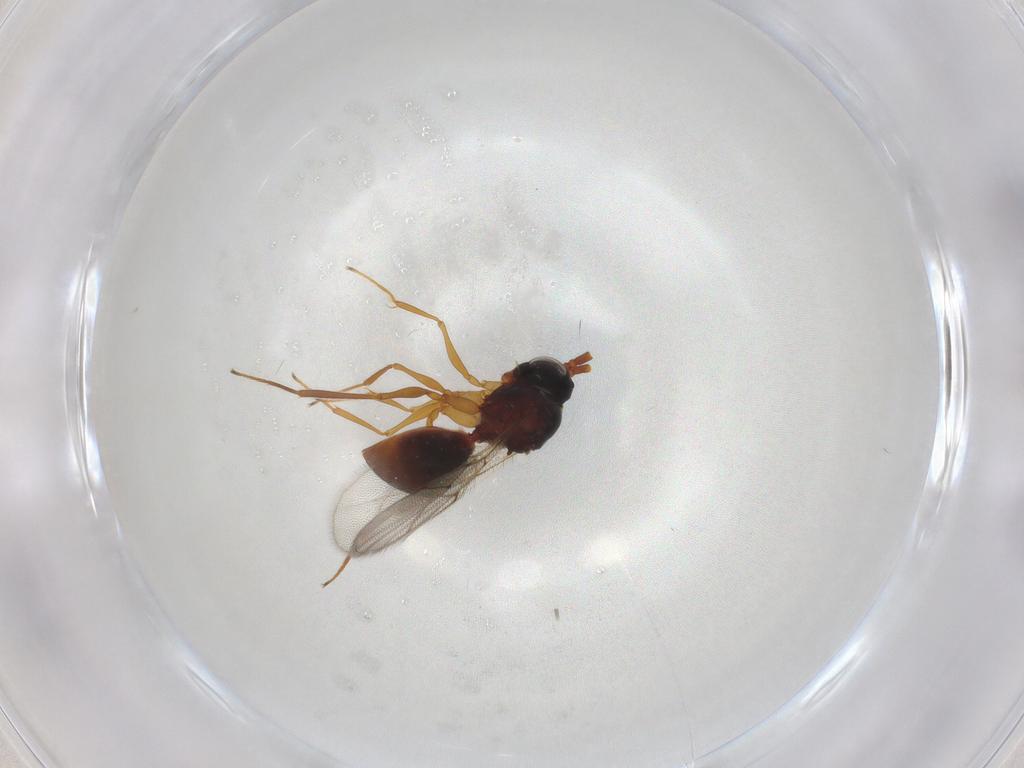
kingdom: Animalia
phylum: Arthropoda
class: Insecta
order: Hymenoptera
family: Figitidae
